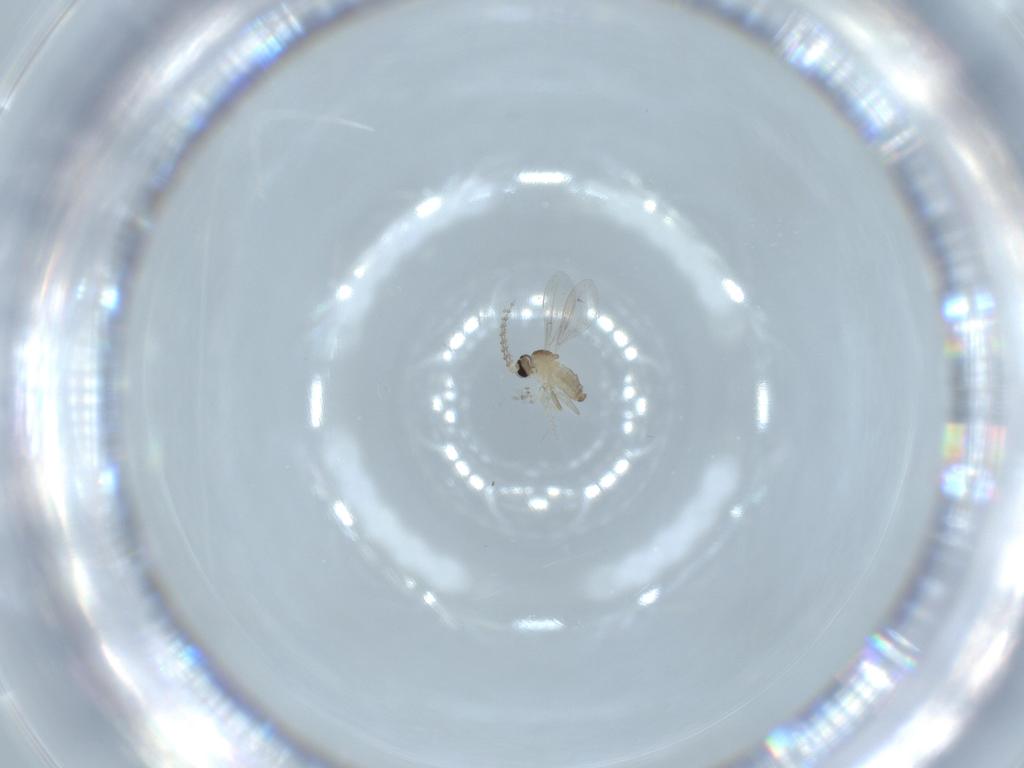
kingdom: Animalia
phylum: Arthropoda
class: Insecta
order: Diptera
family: Cecidomyiidae
